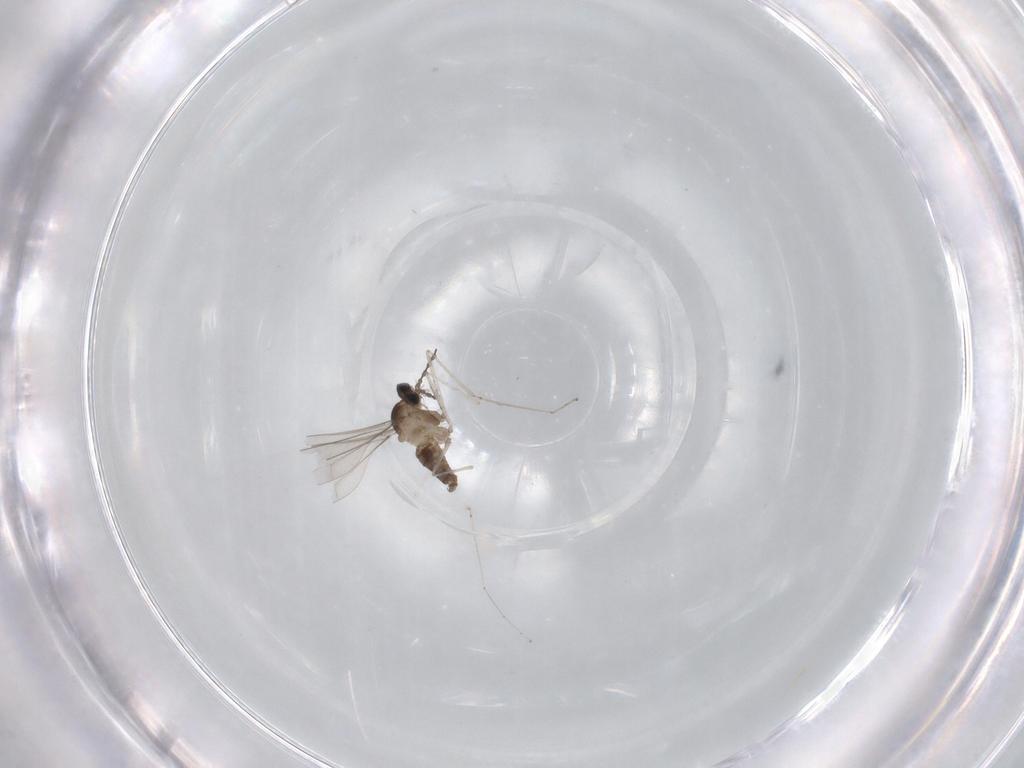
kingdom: Animalia
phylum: Arthropoda
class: Insecta
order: Diptera
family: Cecidomyiidae
